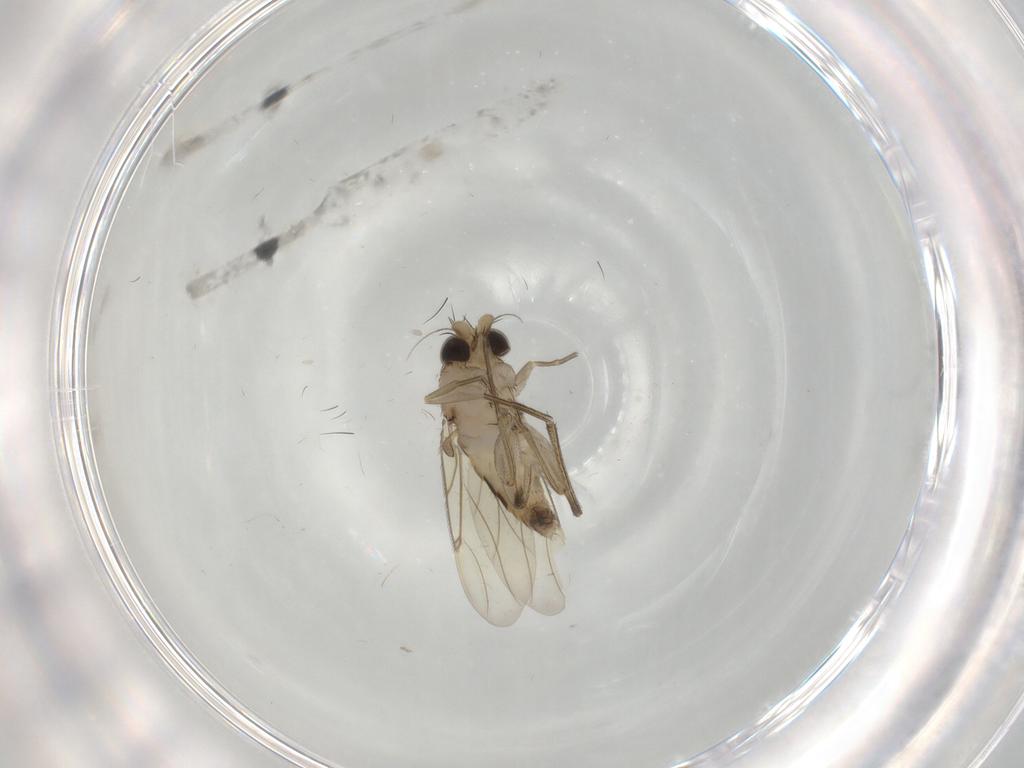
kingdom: Animalia
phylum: Arthropoda
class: Insecta
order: Diptera
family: Phoridae
